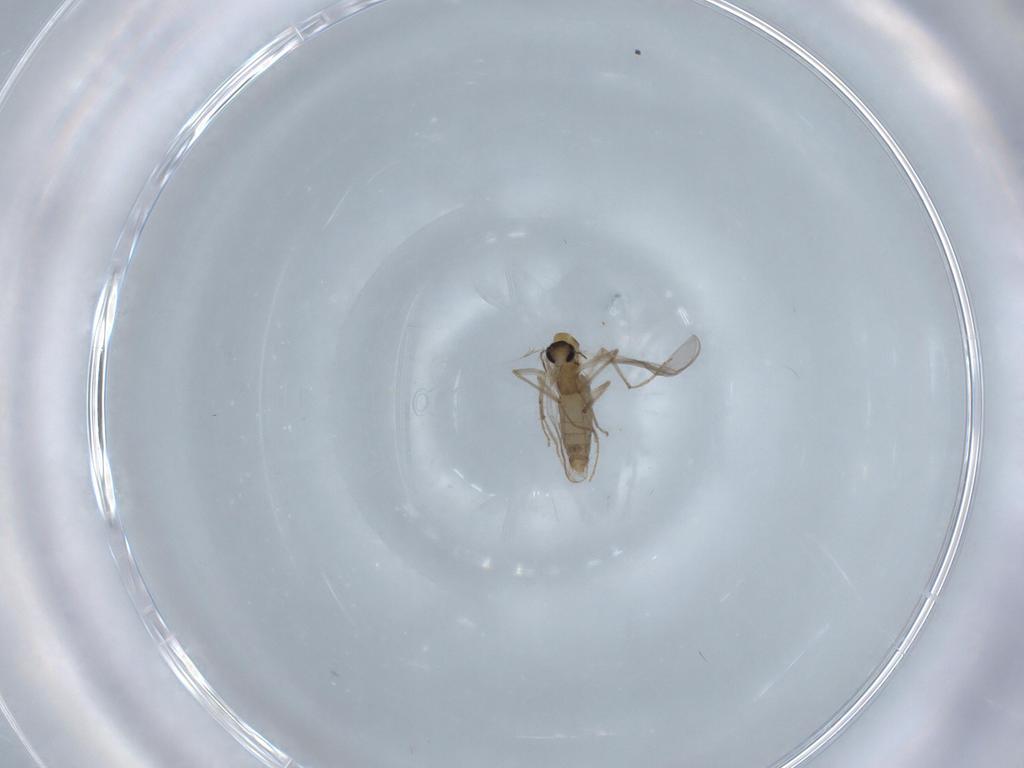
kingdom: Animalia
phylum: Arthropoda
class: Insecta
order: Diptera
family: Chironomidae
